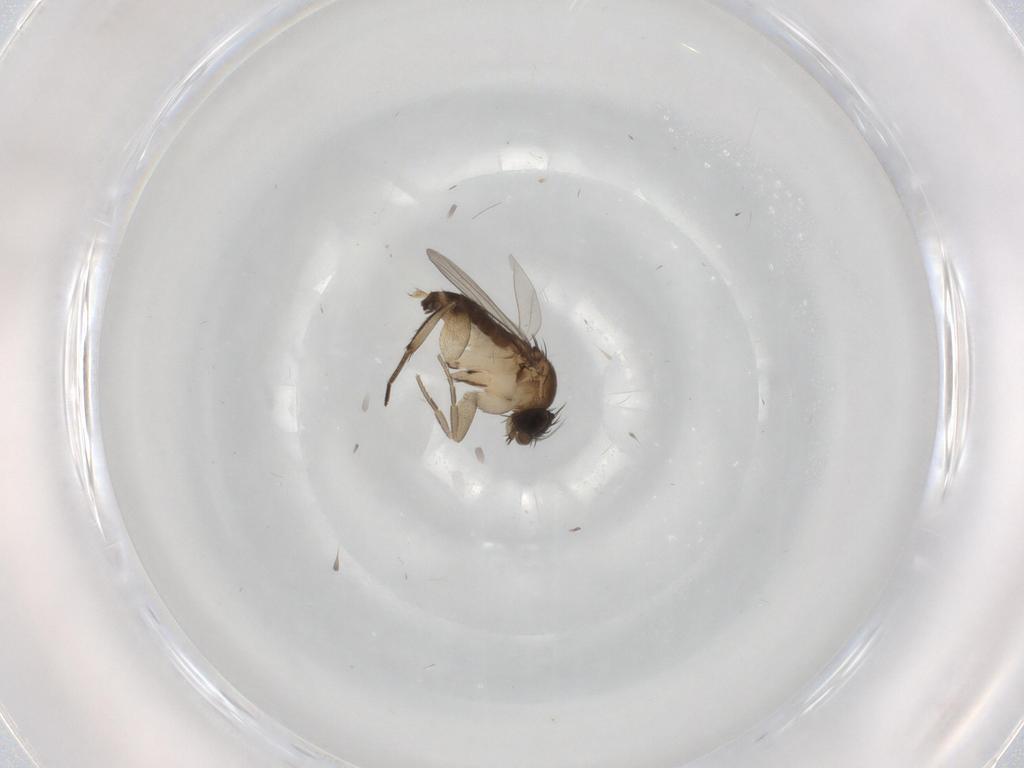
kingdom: Animalia
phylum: Arthropoda
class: Insecta
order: Diptera
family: Phoridae
